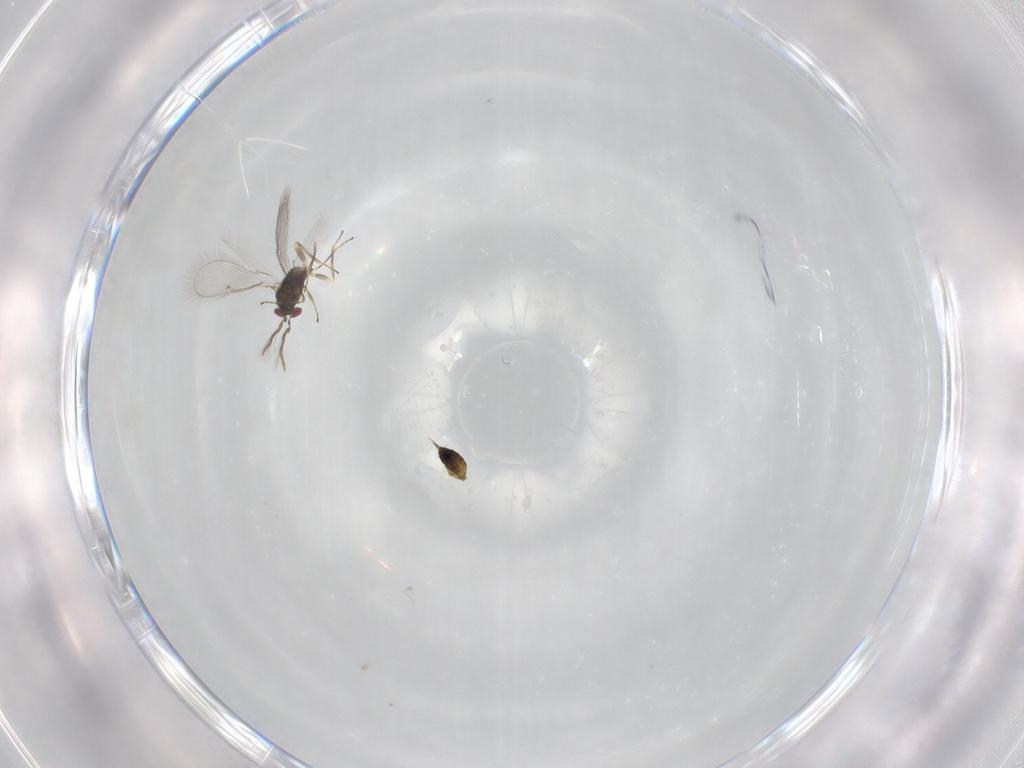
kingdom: Animalia
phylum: Arthropoda
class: Insecta
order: Hymenoptera
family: Eulophidae
